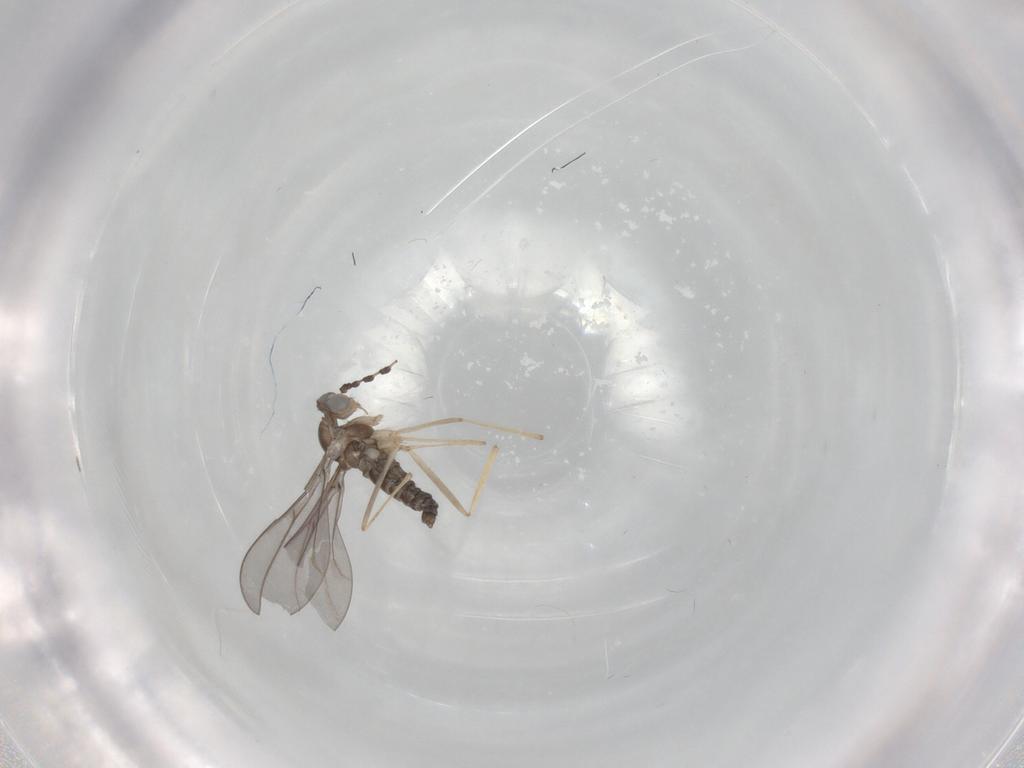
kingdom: Animalia
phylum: Arthropoda
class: Insecta
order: Diptera
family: Cecidomyiidae
